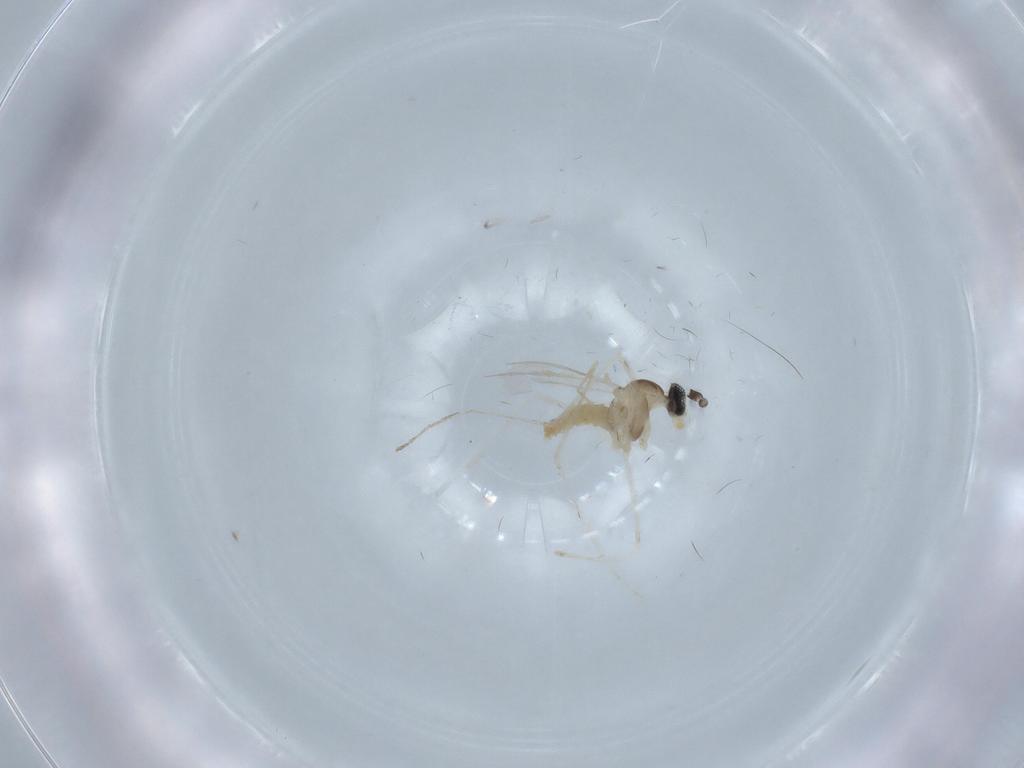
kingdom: Animalia
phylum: Arthropoda
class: Insecta
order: Diptera
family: Cecidomyiidae
